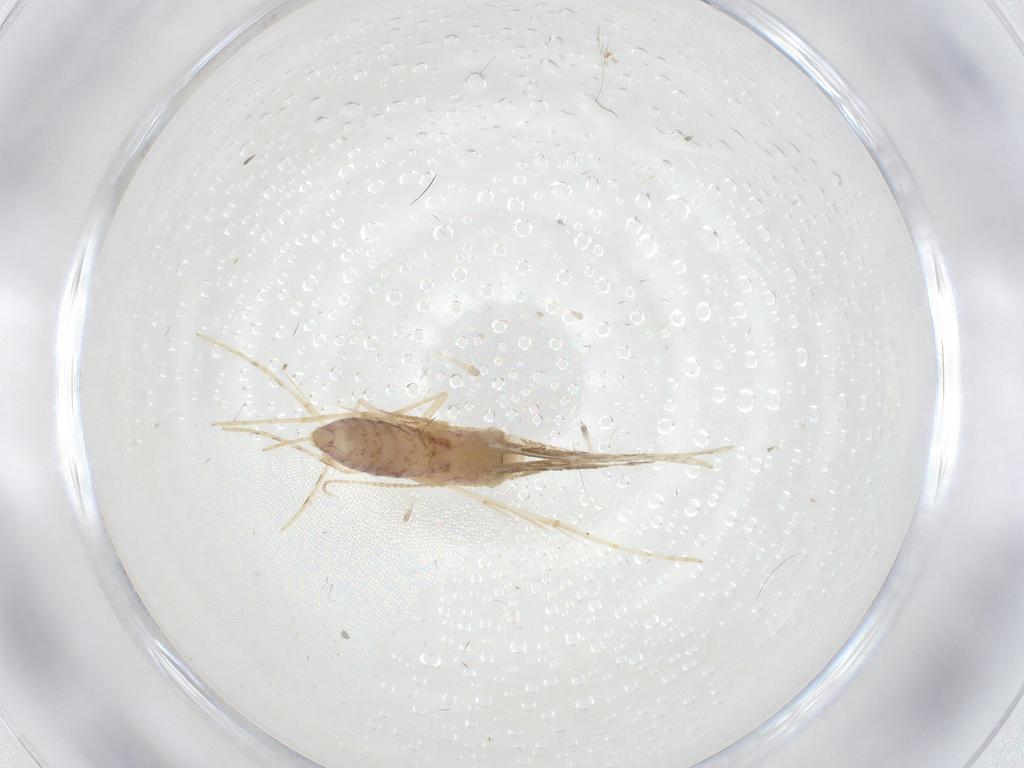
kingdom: Animalia
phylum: Arthropoda
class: Insecta
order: Lepidoptera
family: Lyonetiidae
